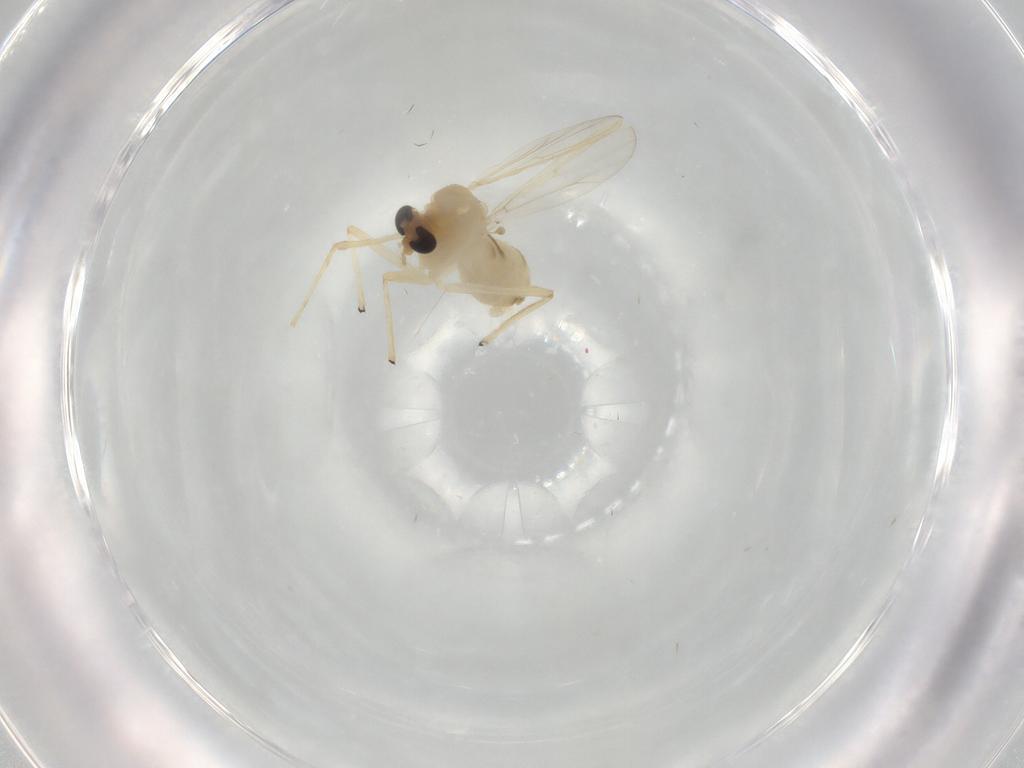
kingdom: Animalia
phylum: Arthropoda
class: Insecta
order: Diptera
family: Chironomidae
